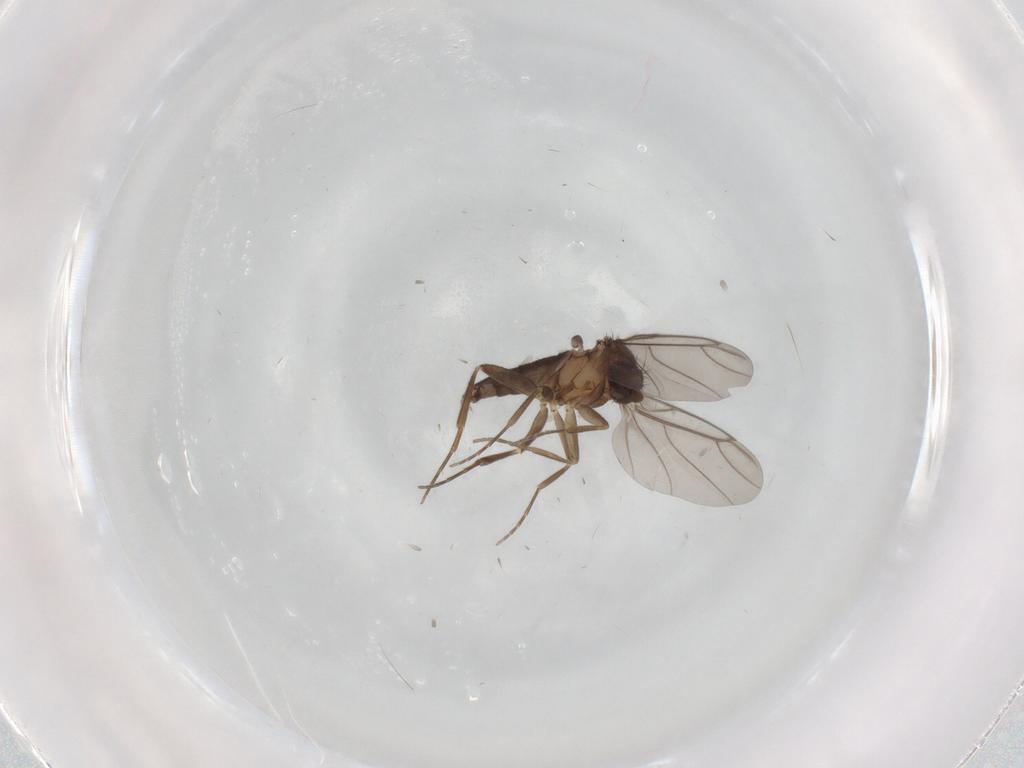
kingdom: Animalia
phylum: Arthropoda
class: Insecta
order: Diptera
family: Phoridae
